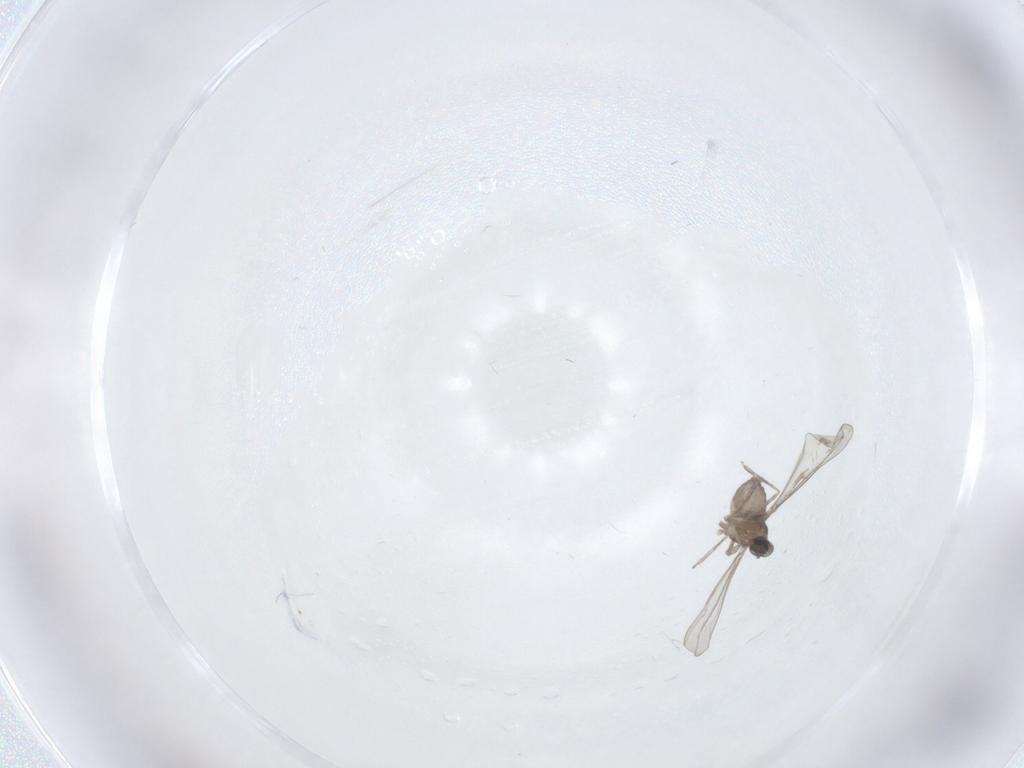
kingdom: Animalia
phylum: Arthropoda
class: Insecta
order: Diptera
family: Cecidomyiidae
